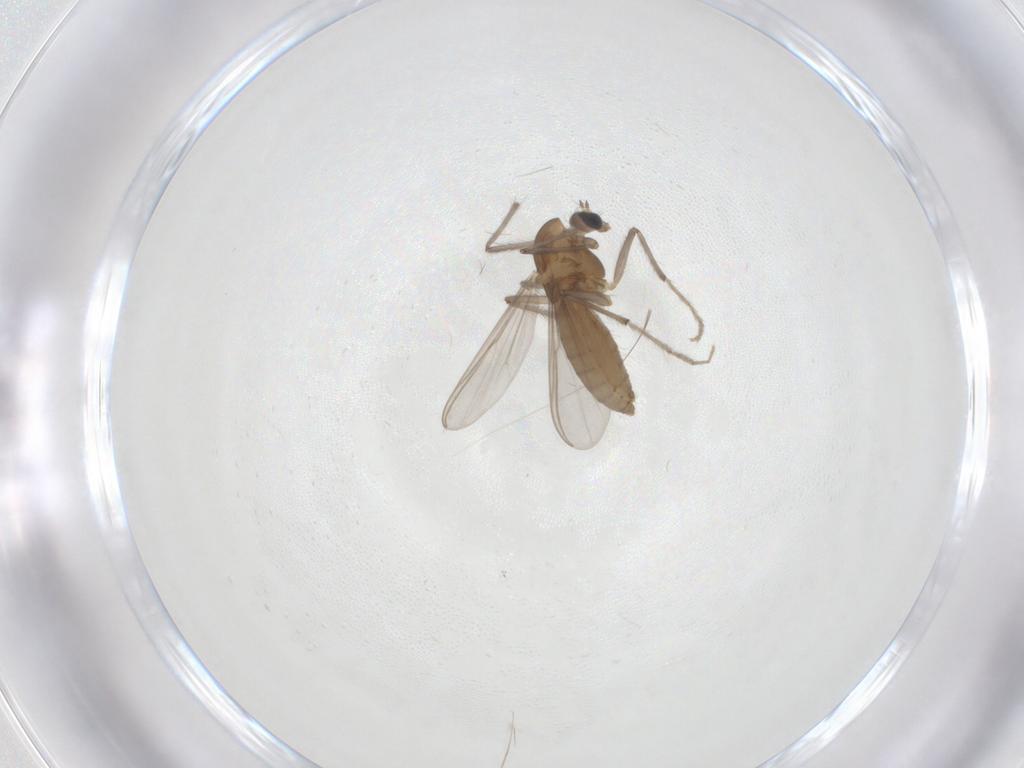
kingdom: Animalia
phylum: Arthropoda
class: Insecta
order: Diptera
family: Chironomidae
